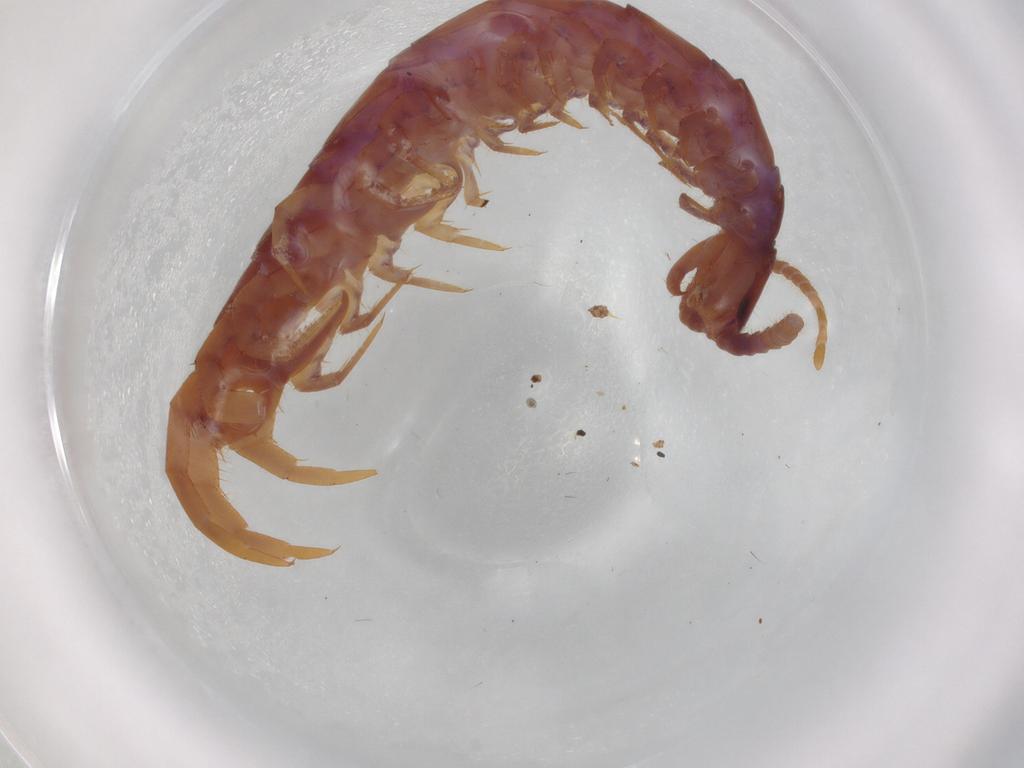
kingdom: Animalia
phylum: Arthropoda
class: Chilopoda
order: Lithobiomorpha
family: Lithobiidae
